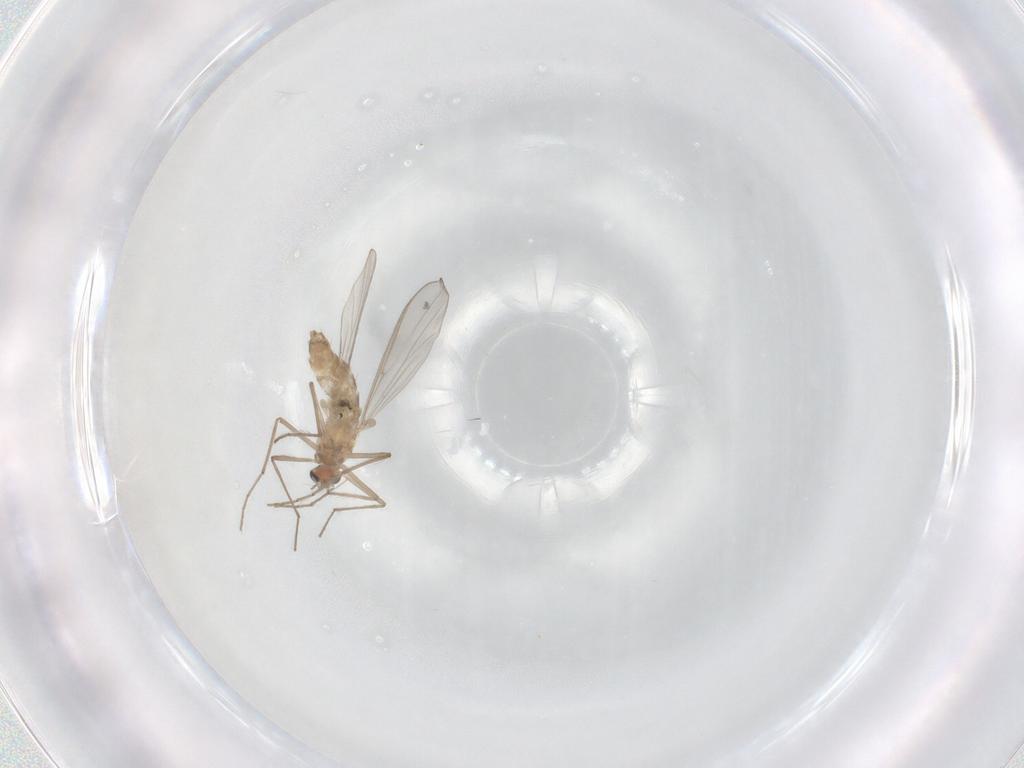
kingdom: Animalia
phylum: Arthropoda
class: Insecta
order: Diptera
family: Chironomidae
